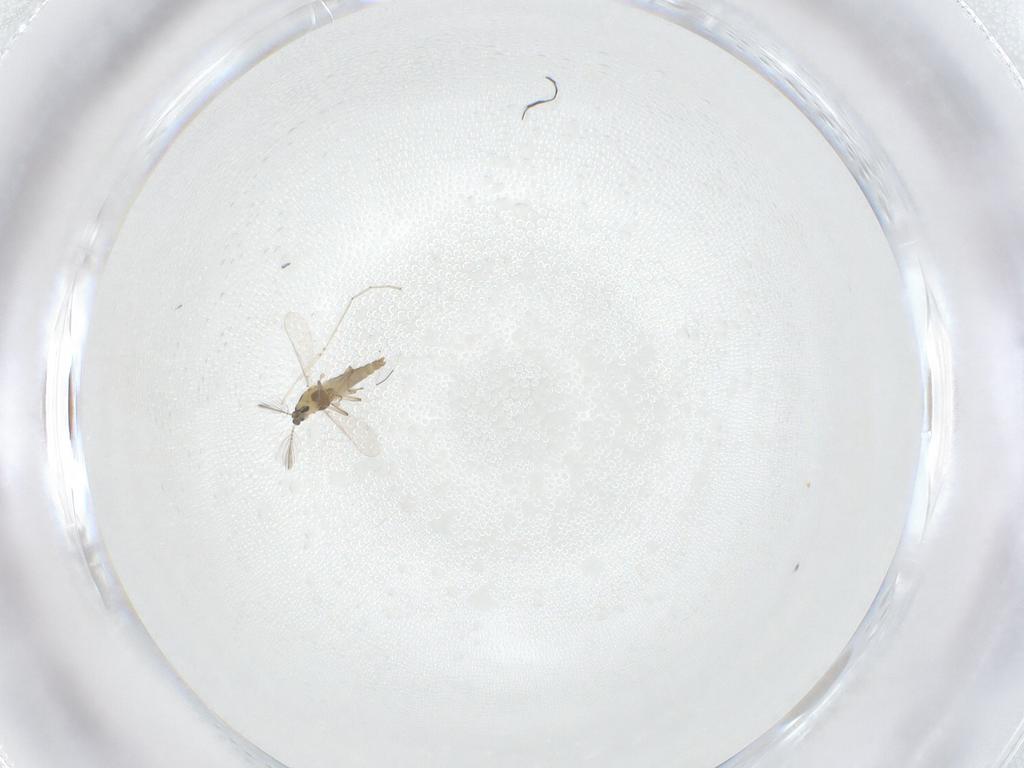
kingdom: Animalia
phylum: Arthropoda
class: Insecta
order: Diptera
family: Chironomidae
